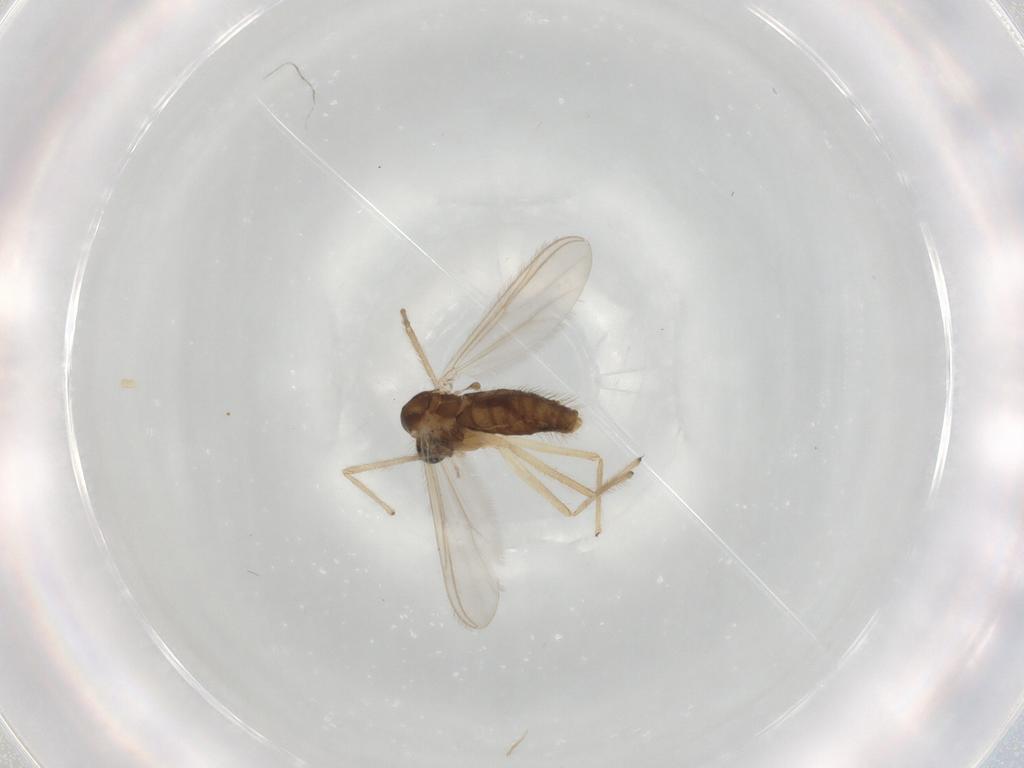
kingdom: Animalia
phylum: Arthropoda
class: Insecta
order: Diptera
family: Chironomidae
